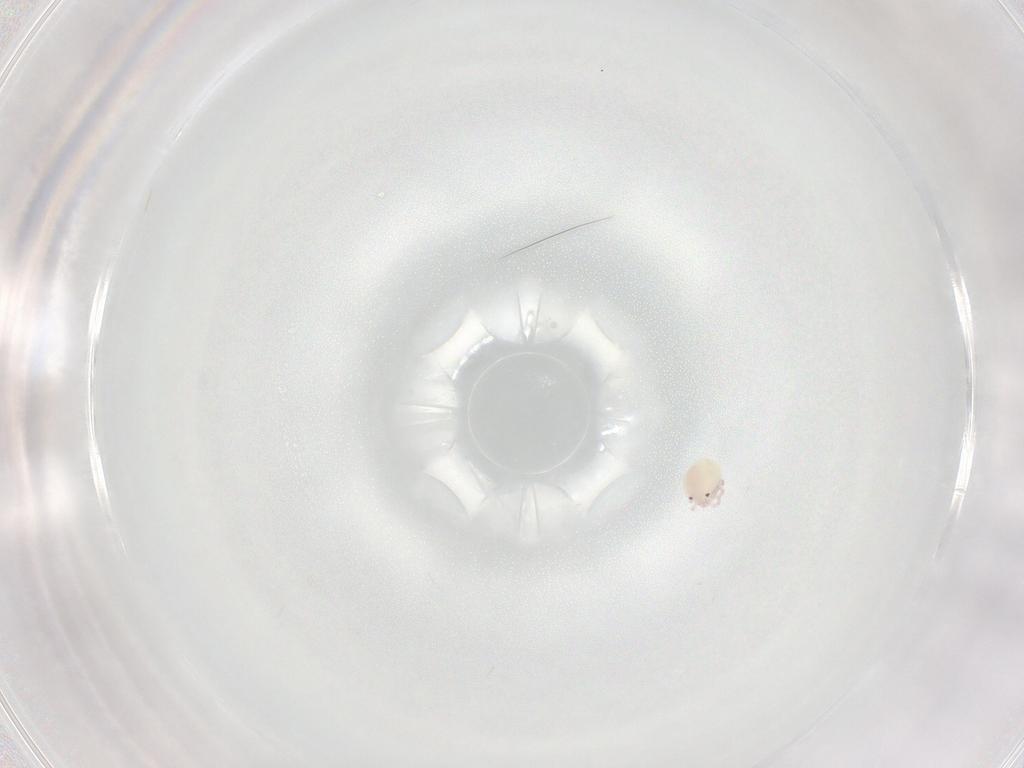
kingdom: Animalia
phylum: Arthropoda
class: Arachnida
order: Trombidiformes
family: Lebertiidae
